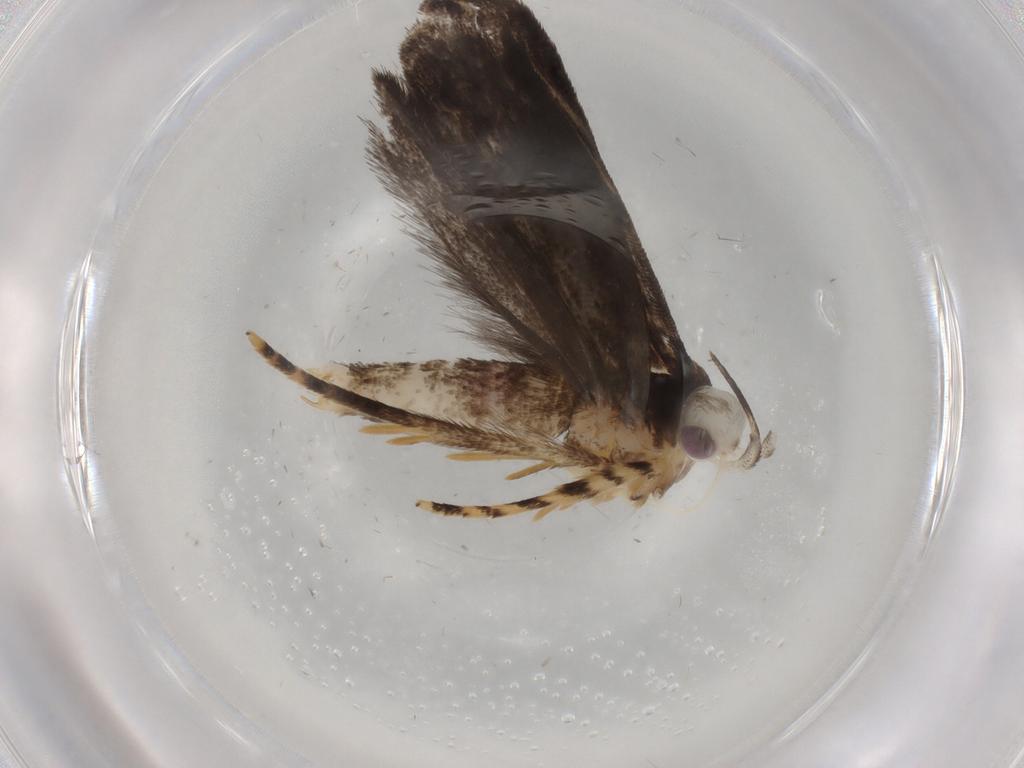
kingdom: Animalia
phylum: Arthropoda
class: Insecta
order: Lepidoptera
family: Gelechiidae
